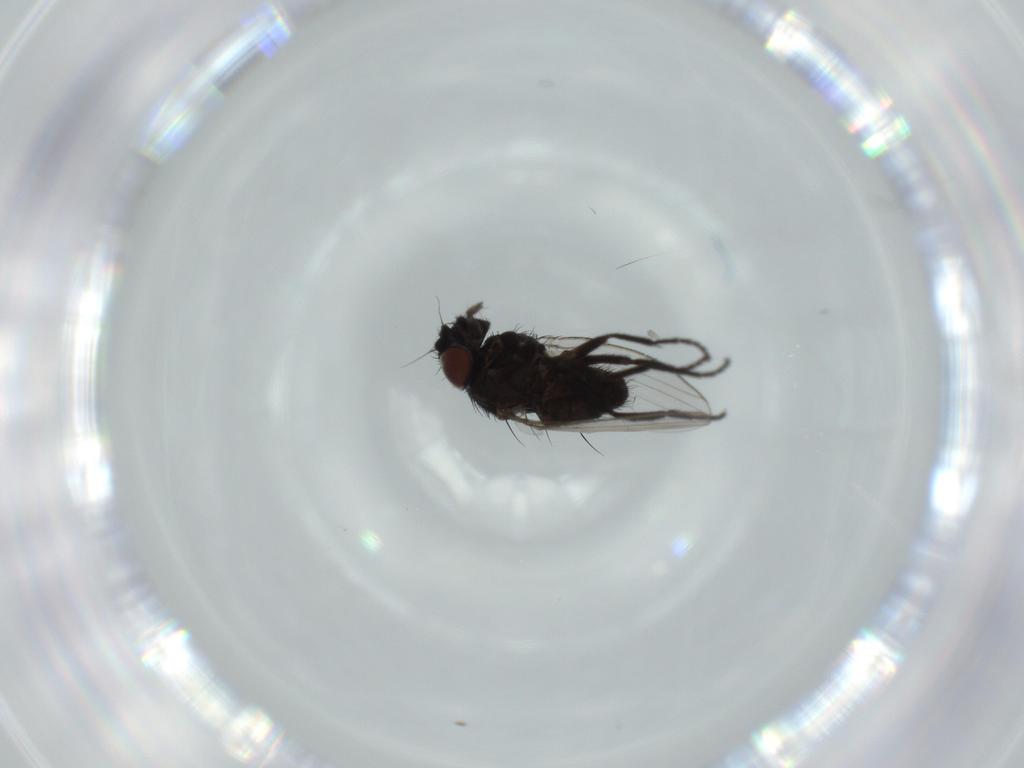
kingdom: Animalia
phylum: Arthropoda
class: Insecta
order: Diptera
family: Milichiidae
